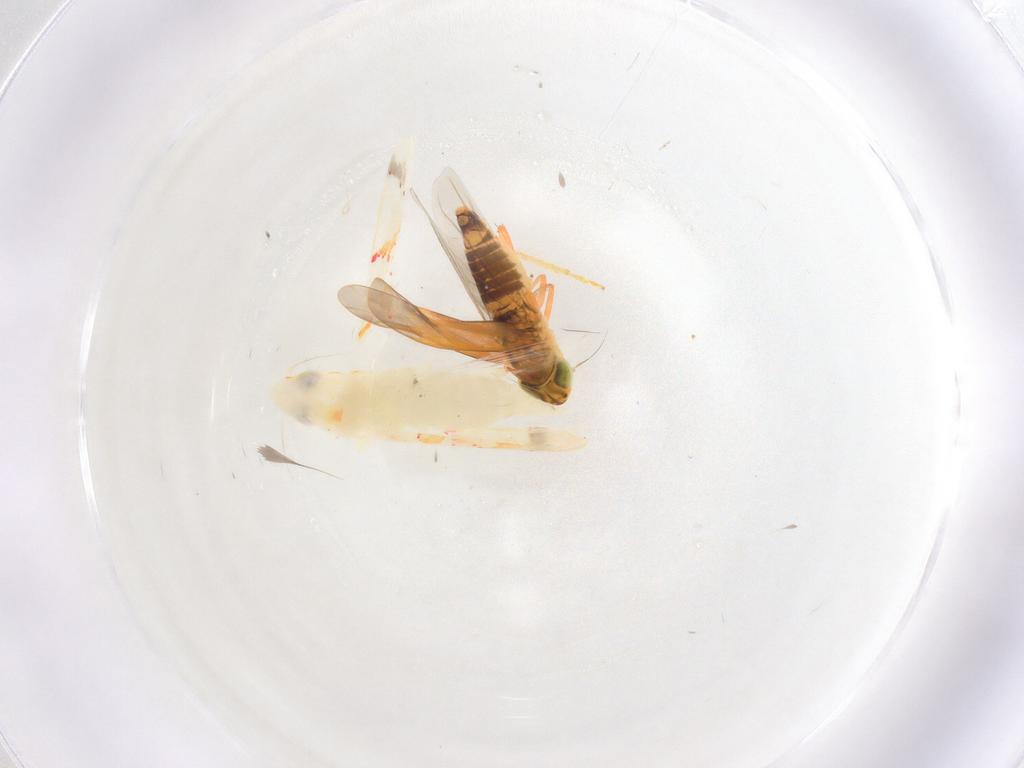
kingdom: Animalia
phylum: Arthropoda
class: Insecta
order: Hemiptera
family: Cicadellidae
